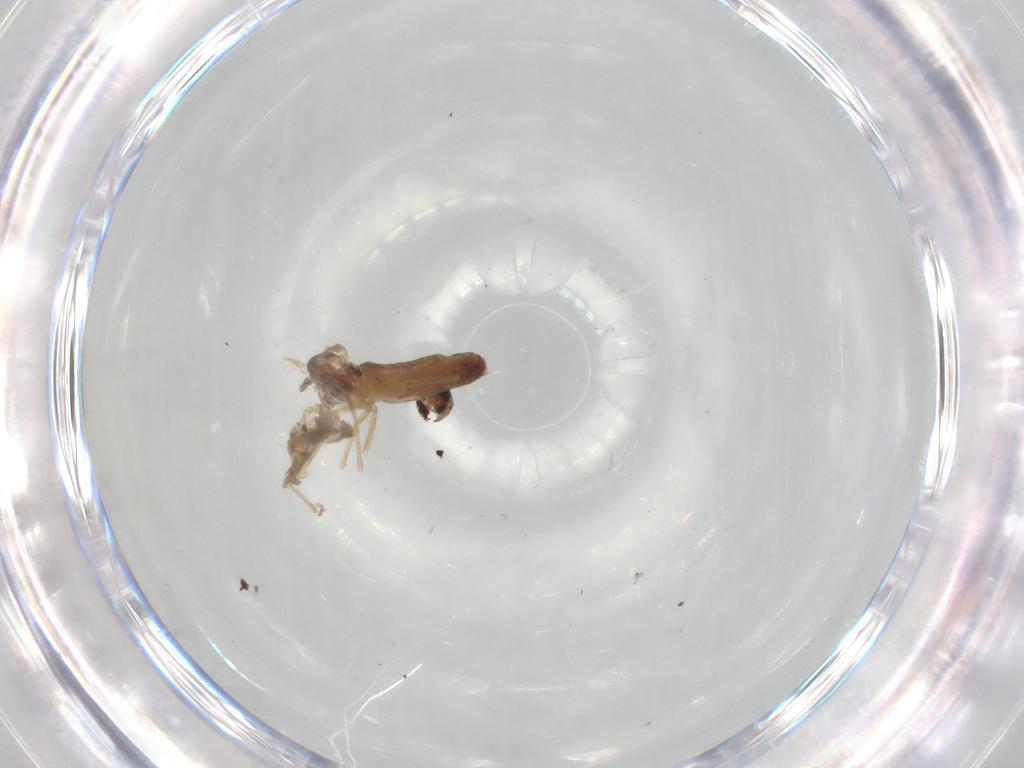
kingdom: Animalia
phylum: Arthropoda
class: Insecta
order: Diptera
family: Chironomidae
